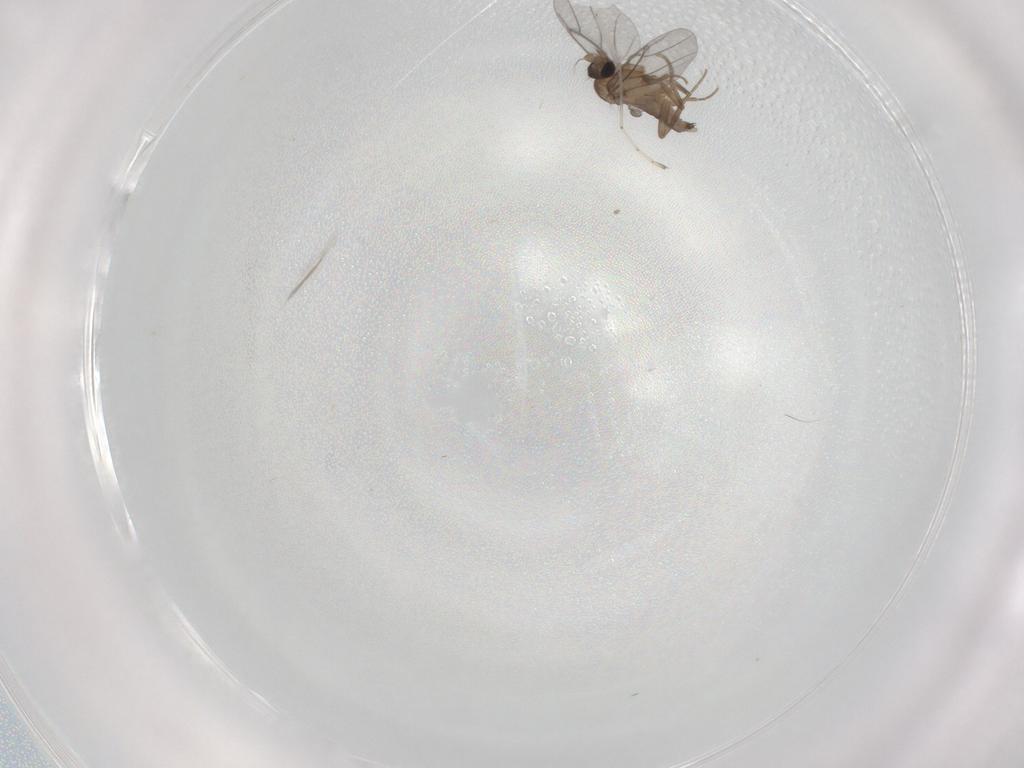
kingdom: Animalia
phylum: Arthropoda
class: Insecta
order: Diptera
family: Cecidomyiidae
